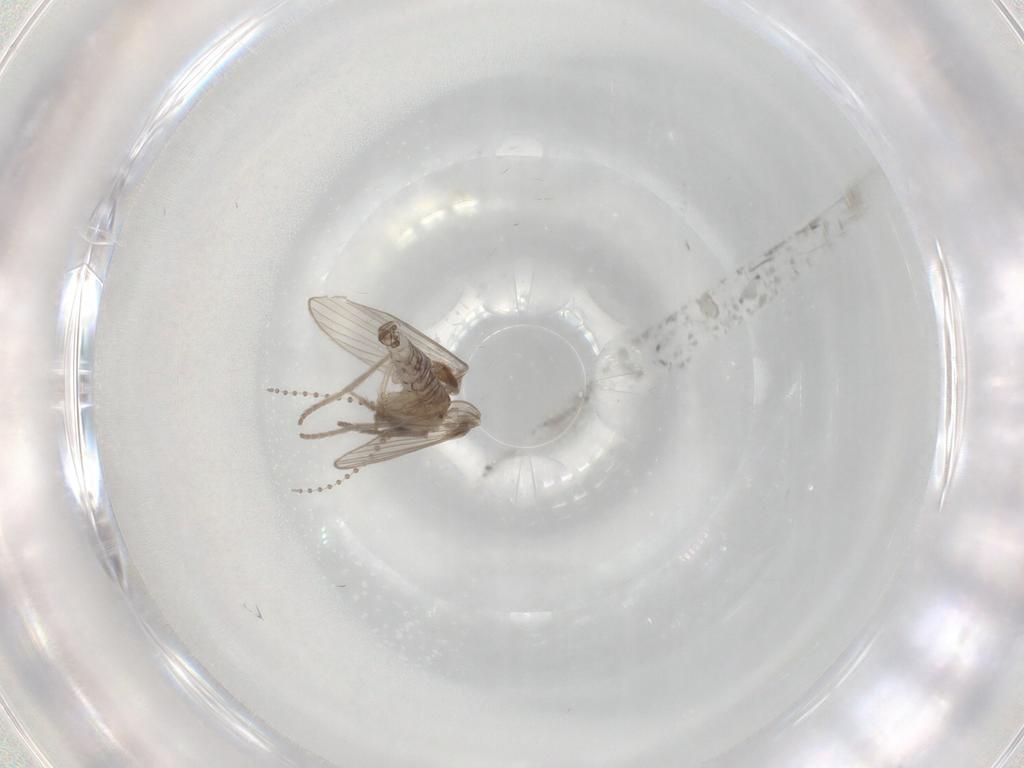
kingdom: Animalia
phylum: Arthropoda
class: Insecta
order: Diptera
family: Psychodidae
